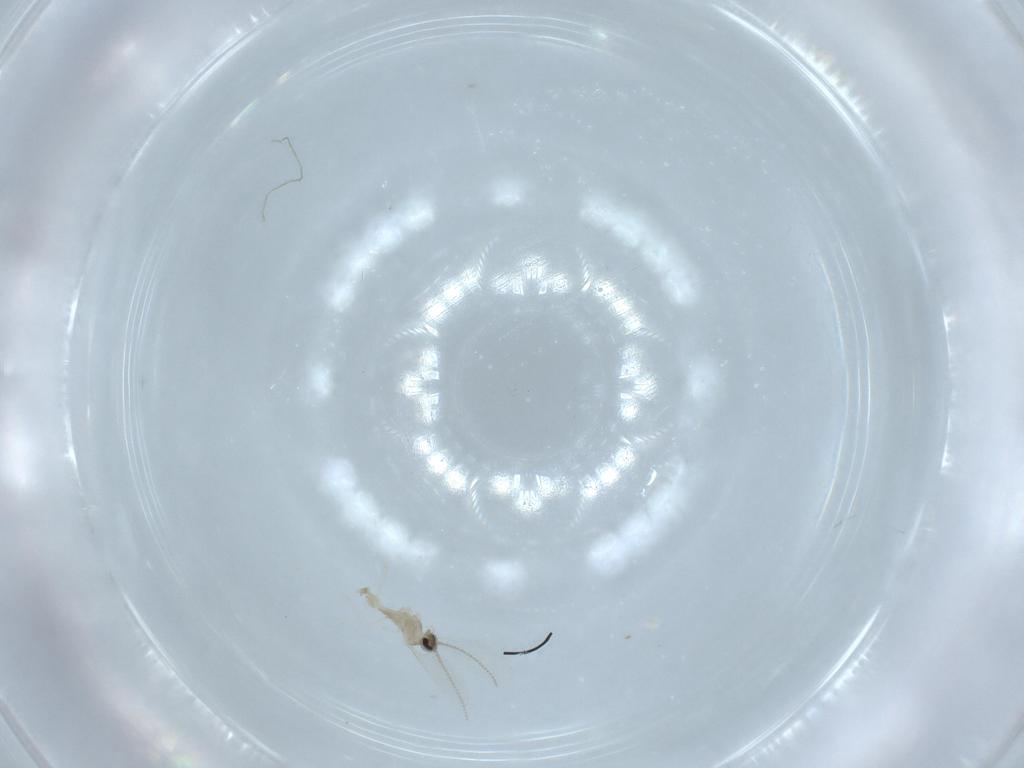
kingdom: Animalia
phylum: Arthropoda
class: Insecta
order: Diptera
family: Cecidomyiidae
